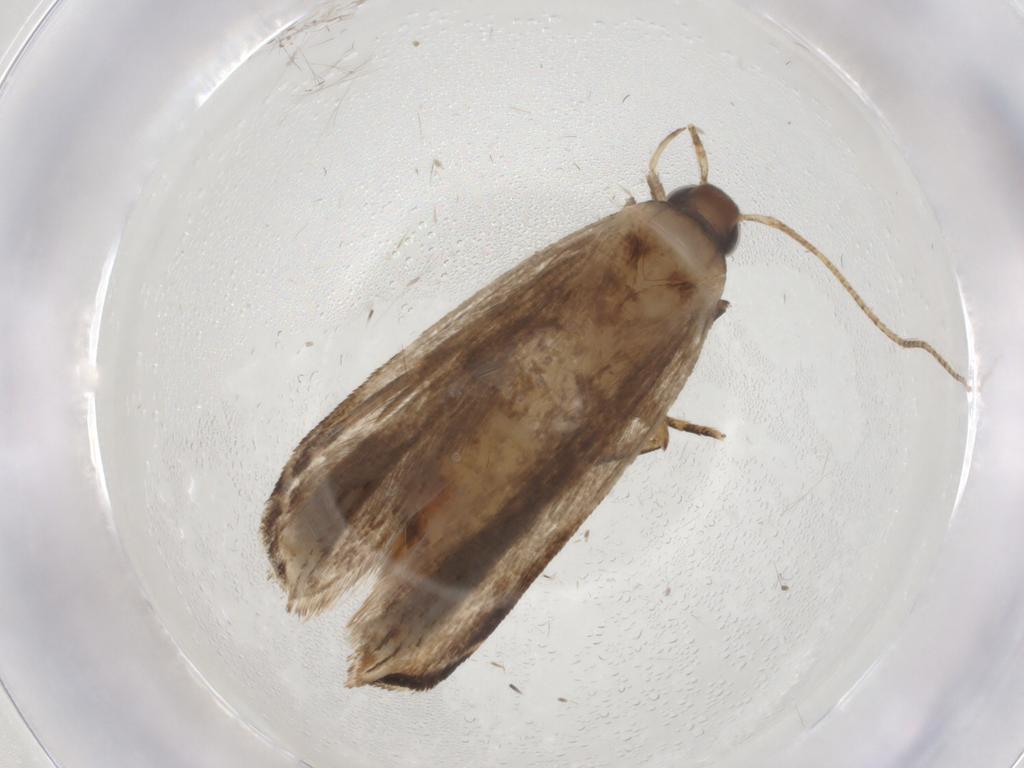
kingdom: Animalia
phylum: Arthropoda
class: Insecta
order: Lepidoptera
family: Gelechiidae
